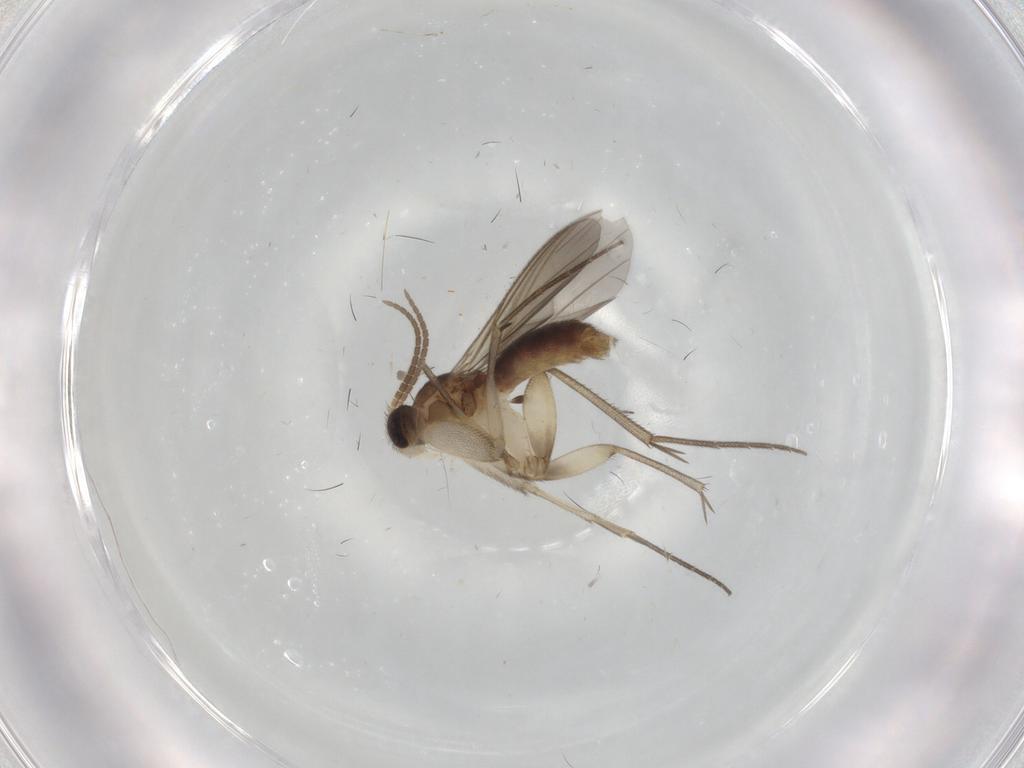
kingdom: Animalia
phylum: Arthropoda
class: Insecta
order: Diptera
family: Mycetophilidae
